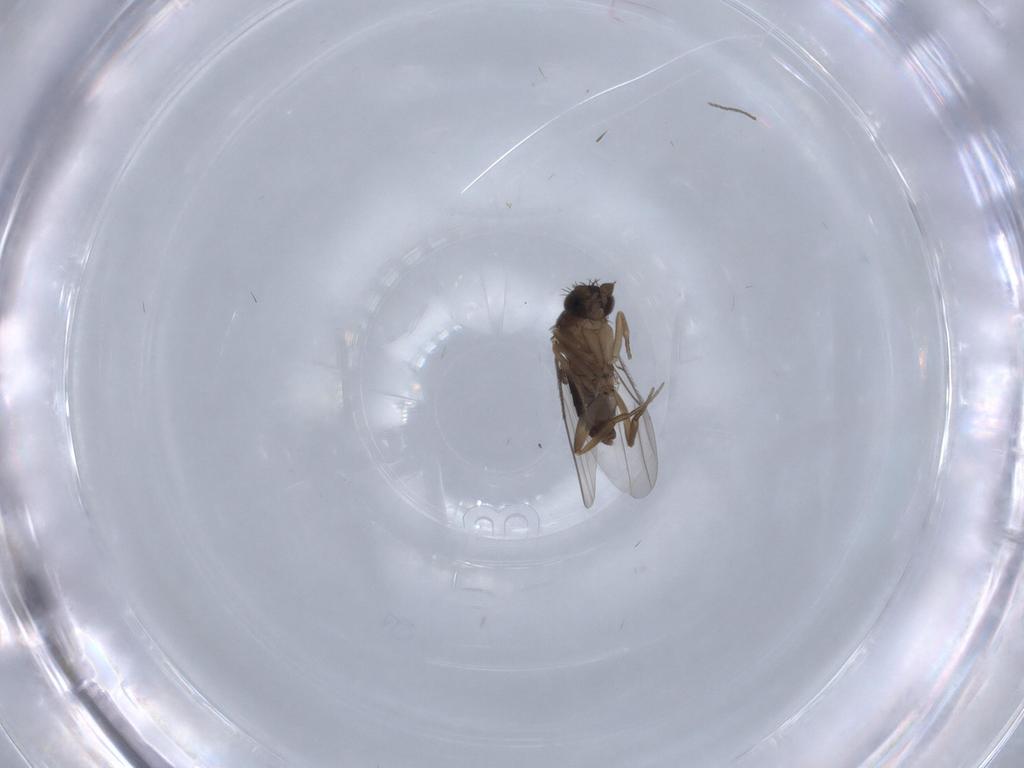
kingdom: Animalia
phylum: Arthropoda
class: Insecta
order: Diptera
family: Phoridae
